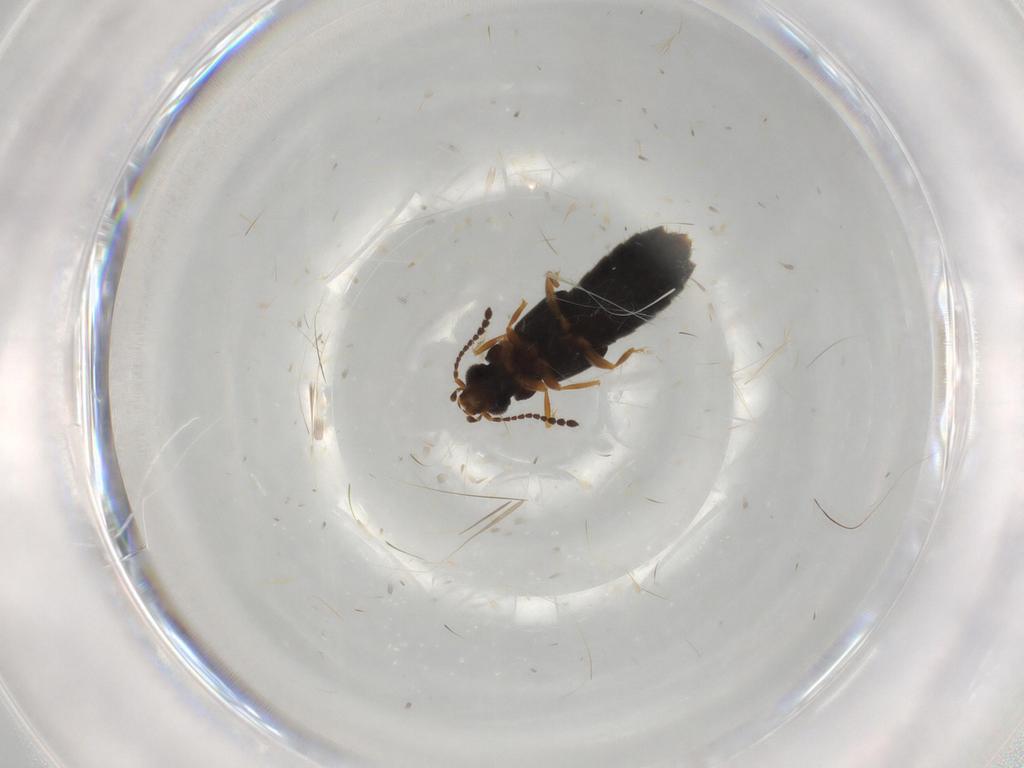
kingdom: Animalia
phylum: Arthropoda
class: Insecta
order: Coleoptera
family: Staphylinidae
